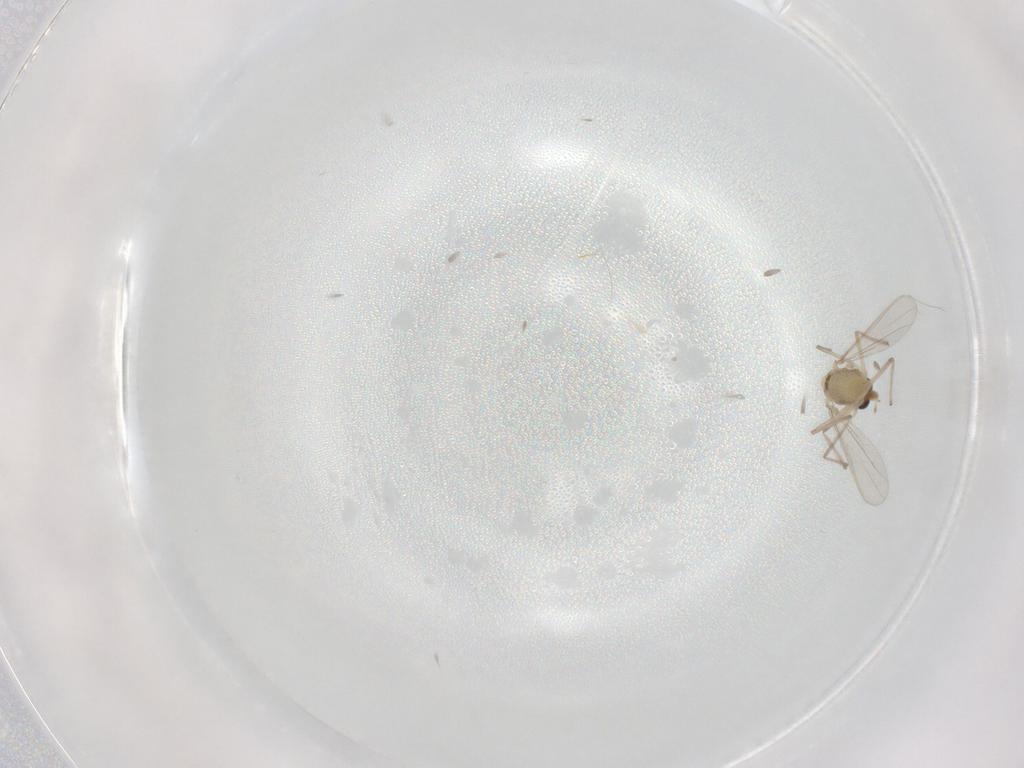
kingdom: Animalia
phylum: Arthropoda
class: Insecta
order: Diptera
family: Chironomidae
